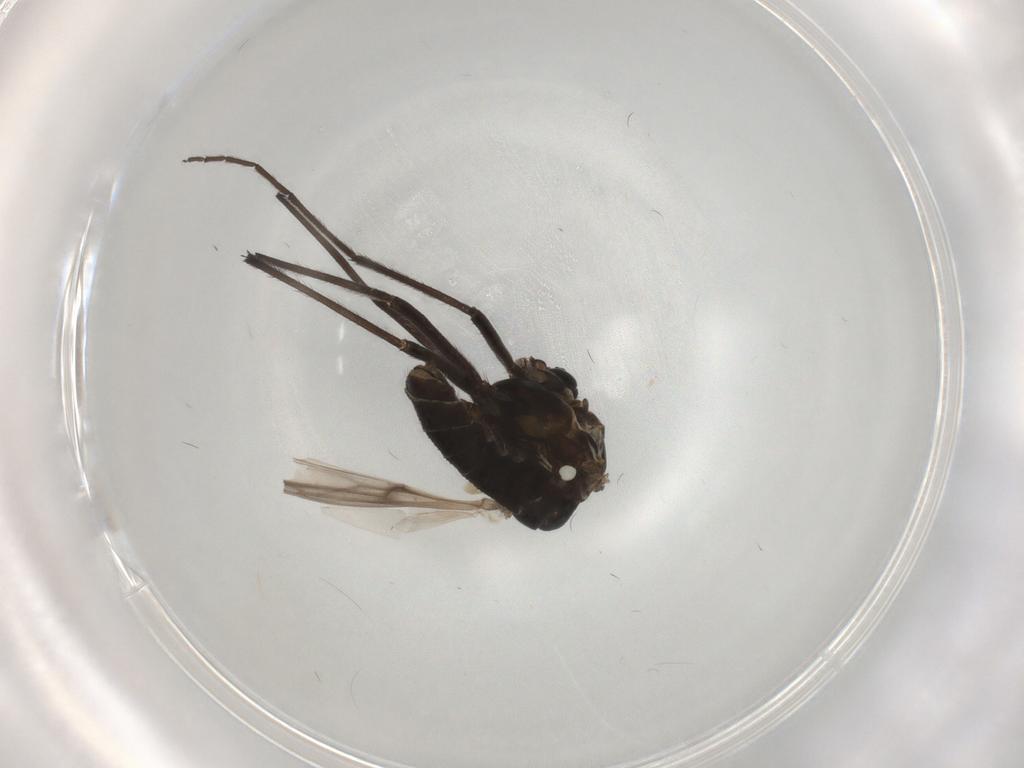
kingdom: Animalia
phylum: Arthropoda
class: Insecta
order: Diptera
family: Chironomidae
